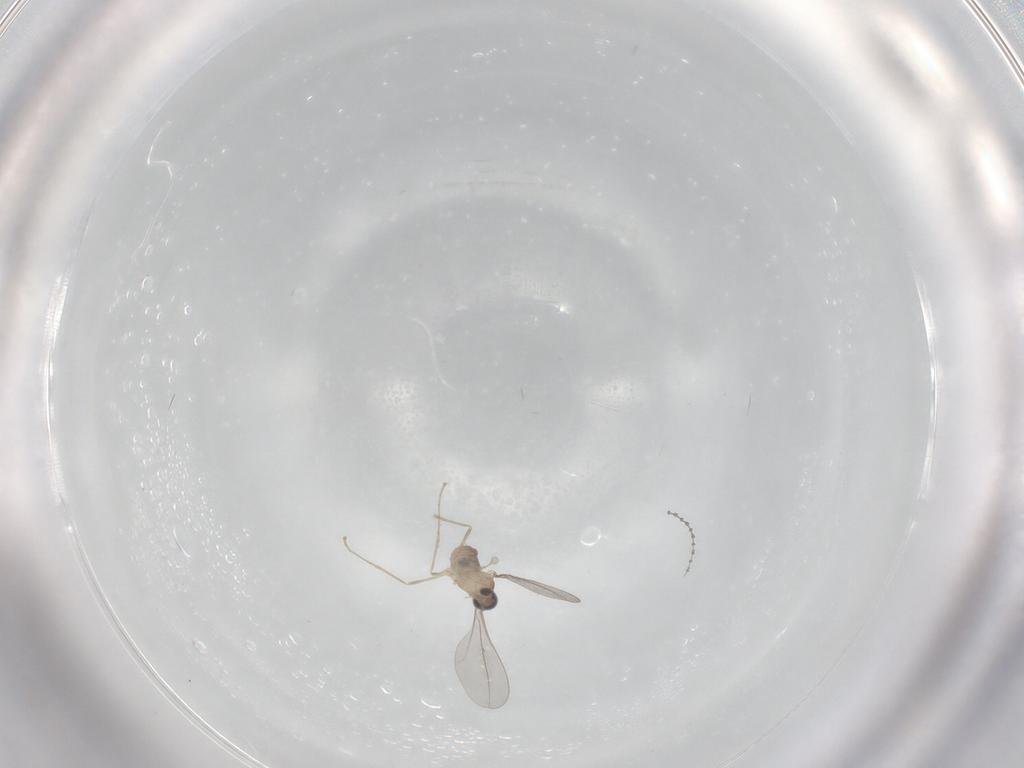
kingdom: Animalia
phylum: Arthropoda
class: Insecta
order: Diptera
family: Cecidomyiidae
